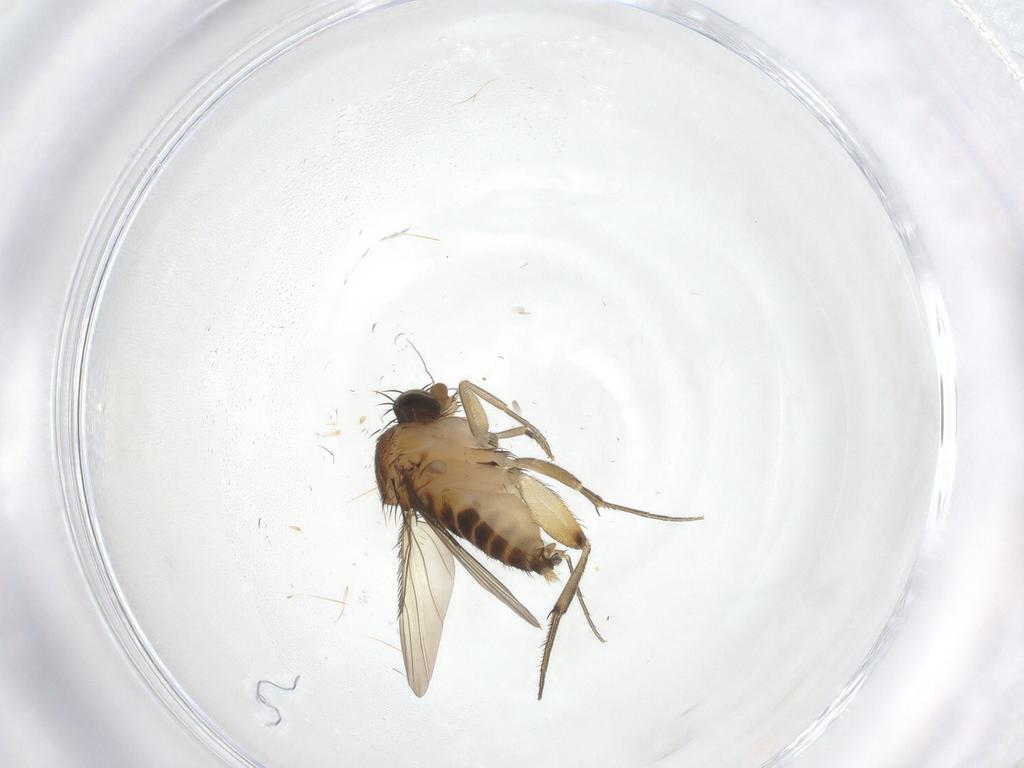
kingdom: Animalia
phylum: Arthropoda
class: Insecta
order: Diptera
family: Phoridae
